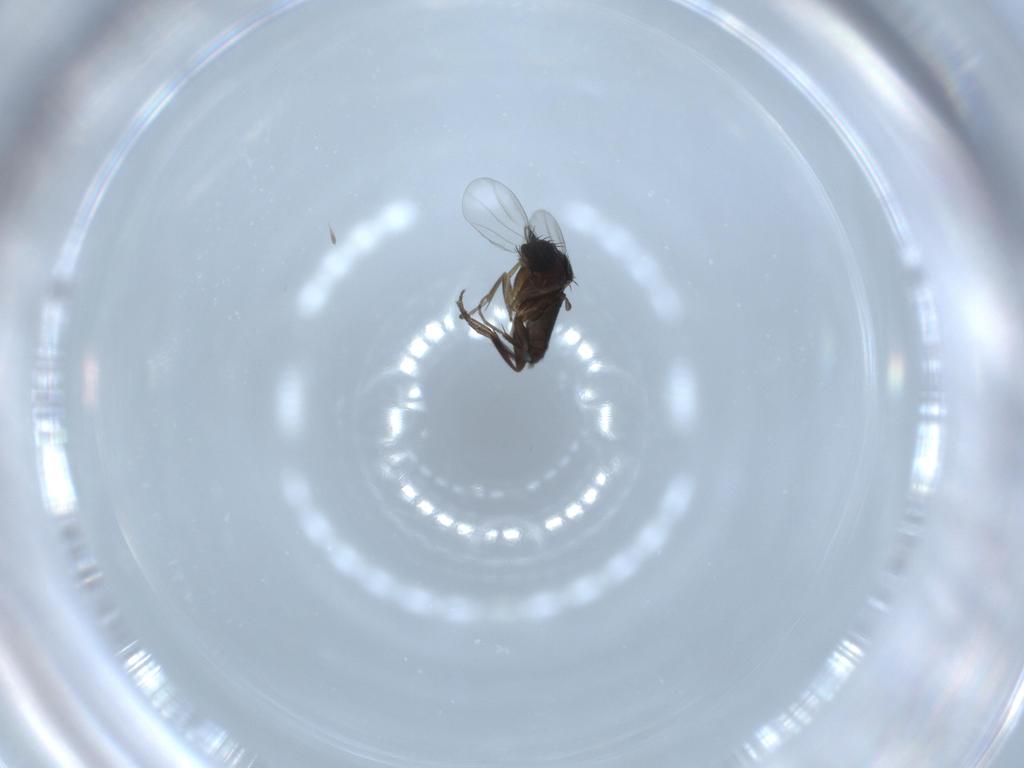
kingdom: Animalia
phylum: Arthropoda
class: Insecta
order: Diptera
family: Phoridae
